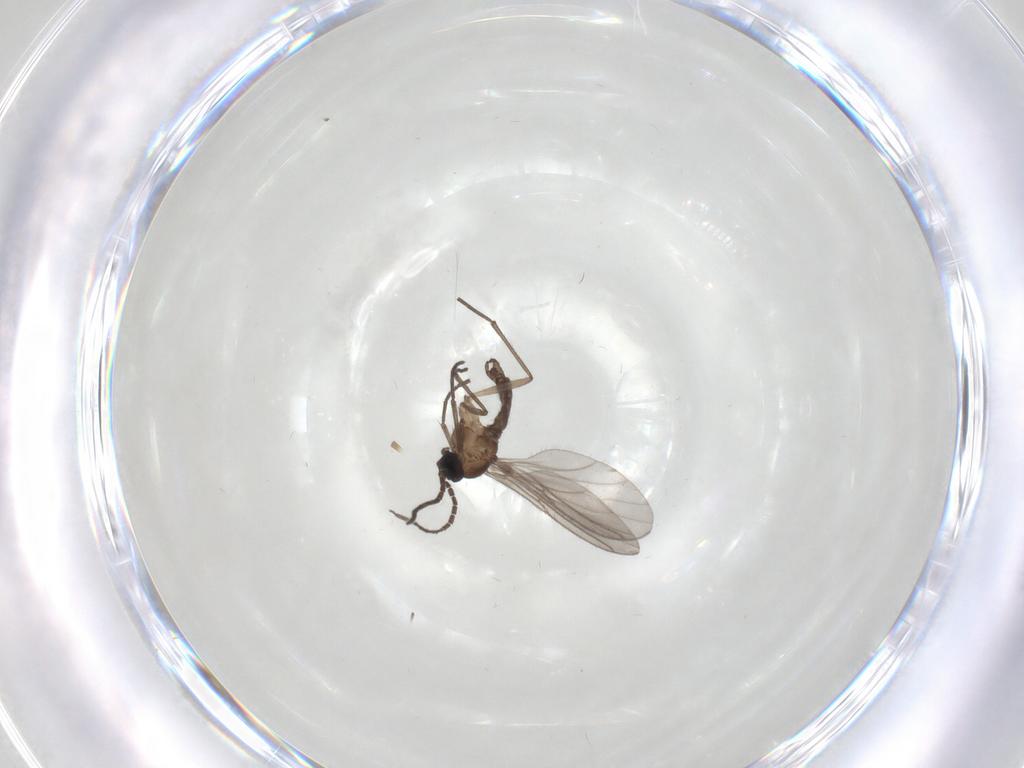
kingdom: Animalia
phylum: Arthropoda
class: Insecta
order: Diptera
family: Sciaridae
